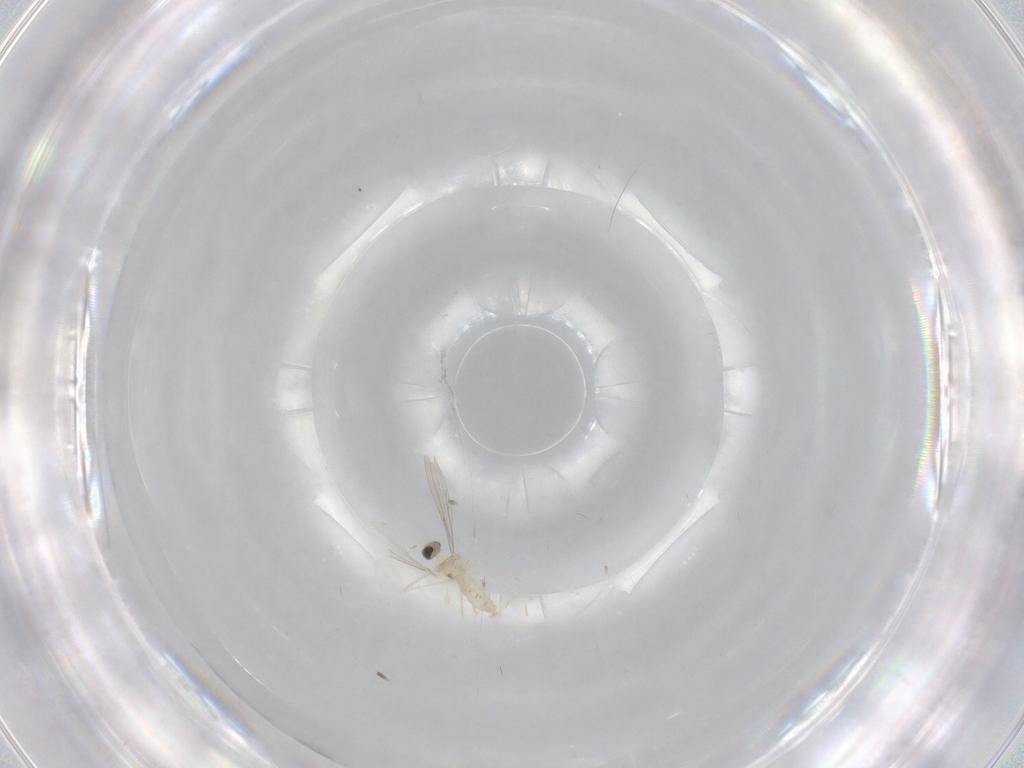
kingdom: Animalia
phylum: Arthropoda
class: Insecta
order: Diptera
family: Cecidomyiidae
